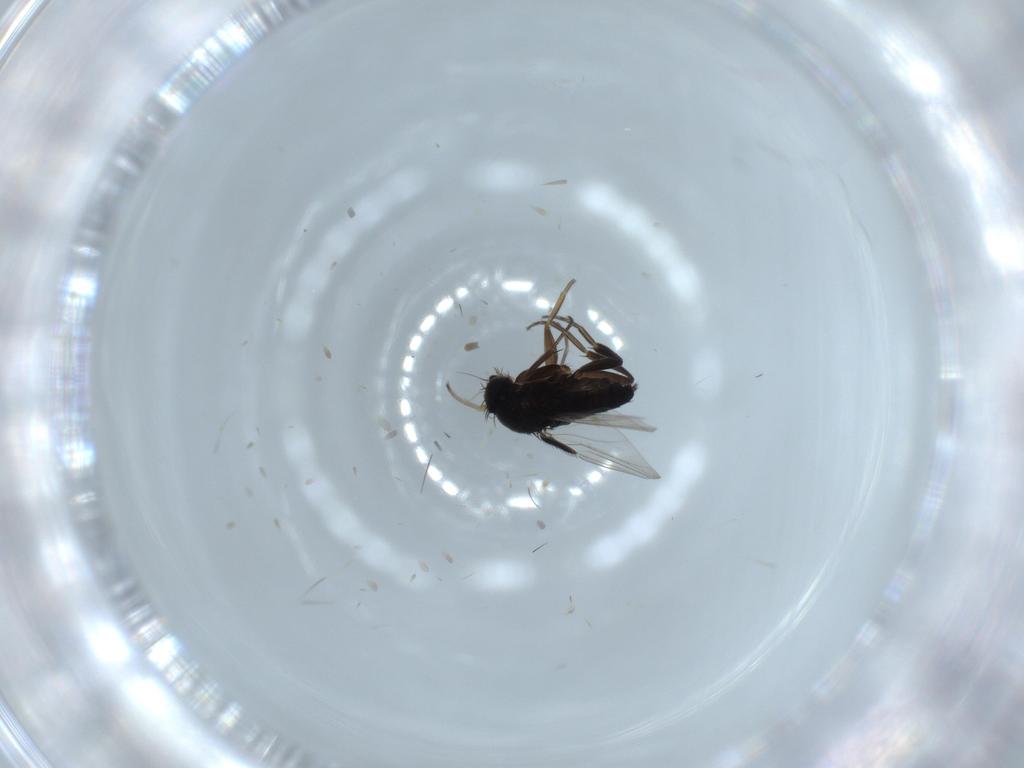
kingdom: Animalia
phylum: Arthropoda
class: Insecta
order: Diptera
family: Phoridae
